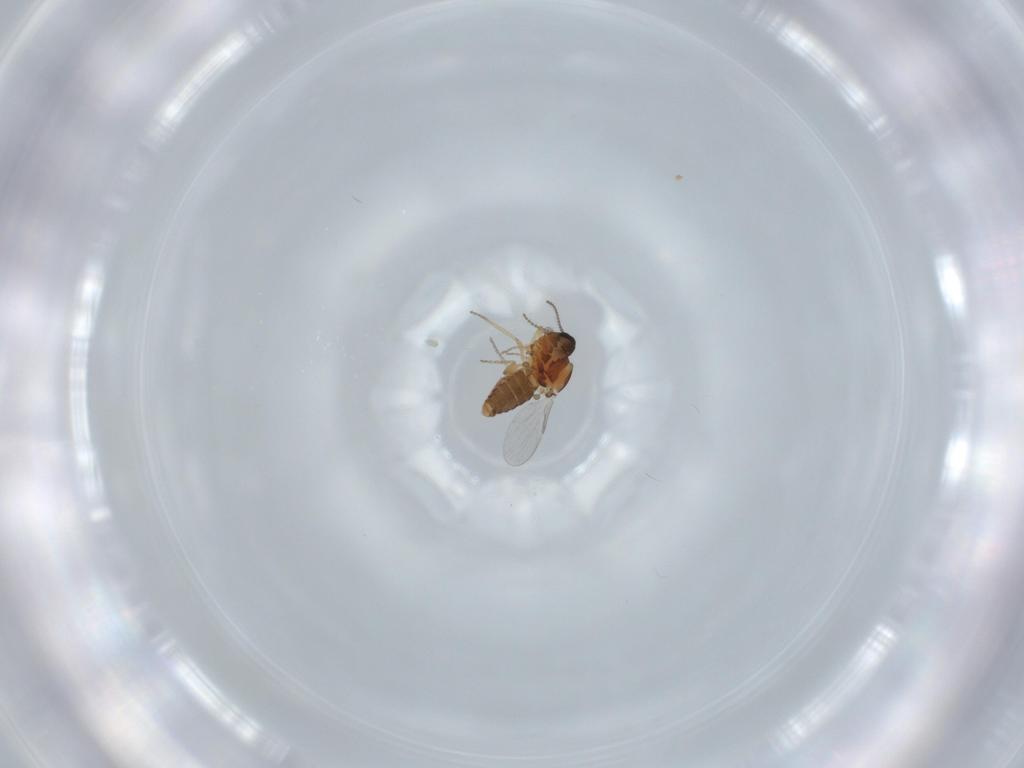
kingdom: Animalia
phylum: Arthropoda
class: Insecta
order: Diptera
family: Ceratopogonidae
